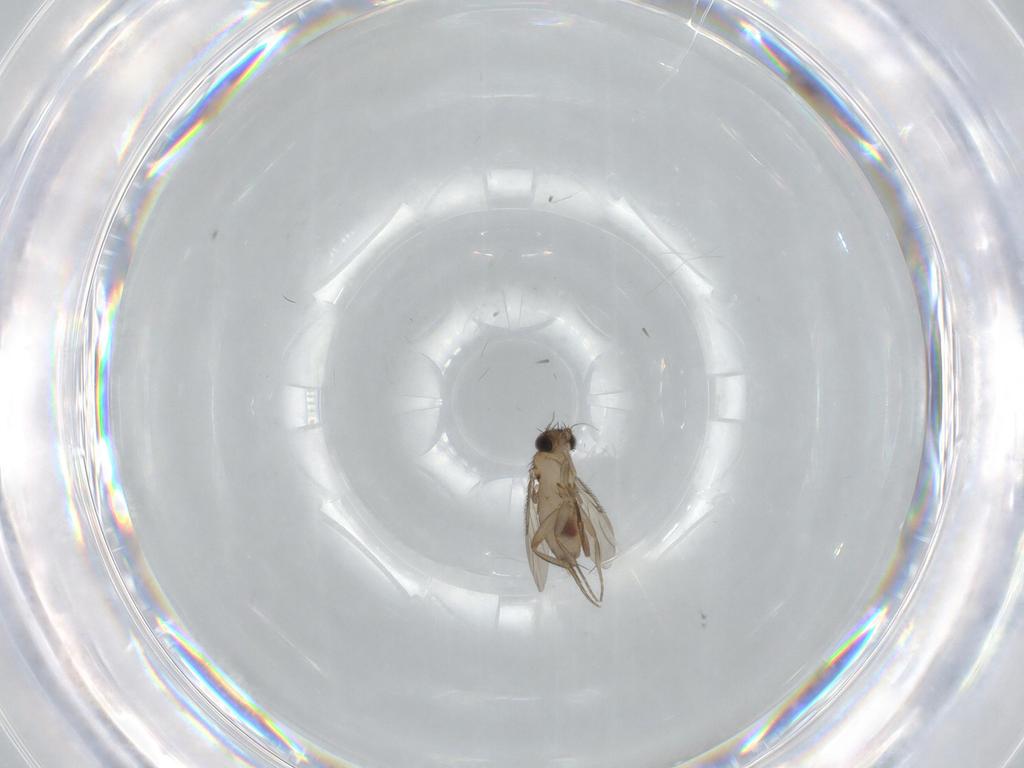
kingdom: Animalia
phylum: Arthropoda
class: Insecta
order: Diptera
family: Phoridae
